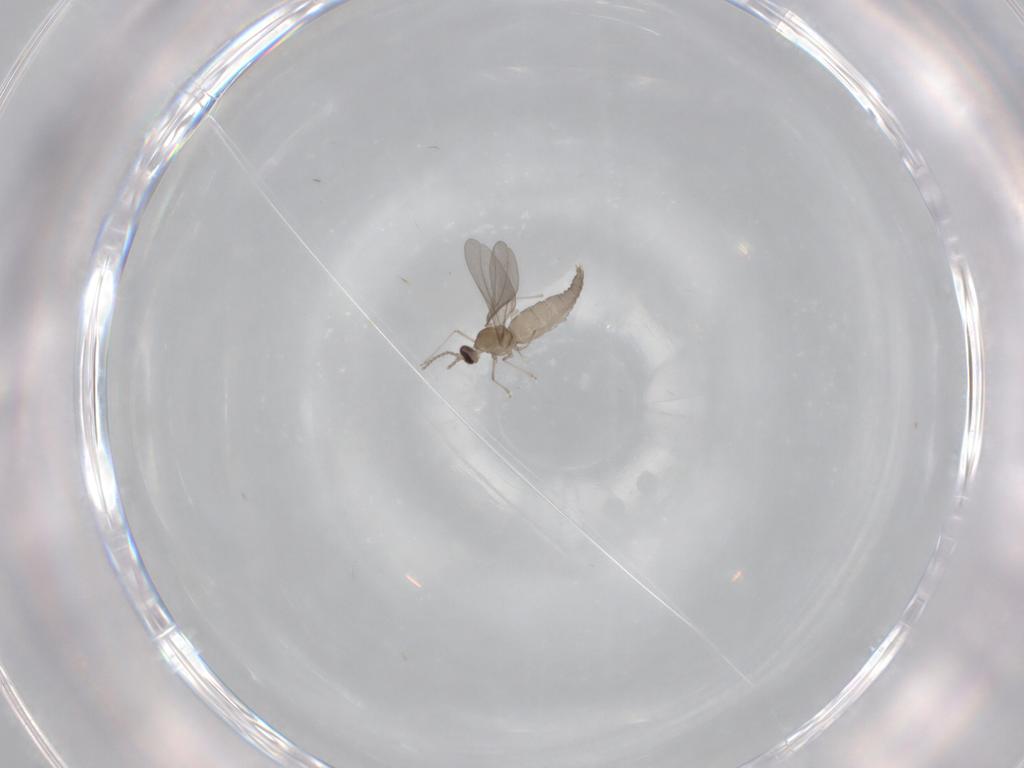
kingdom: Animalia
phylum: Arthropoda
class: Insecta
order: Diptera
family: Cecidomyiidae
